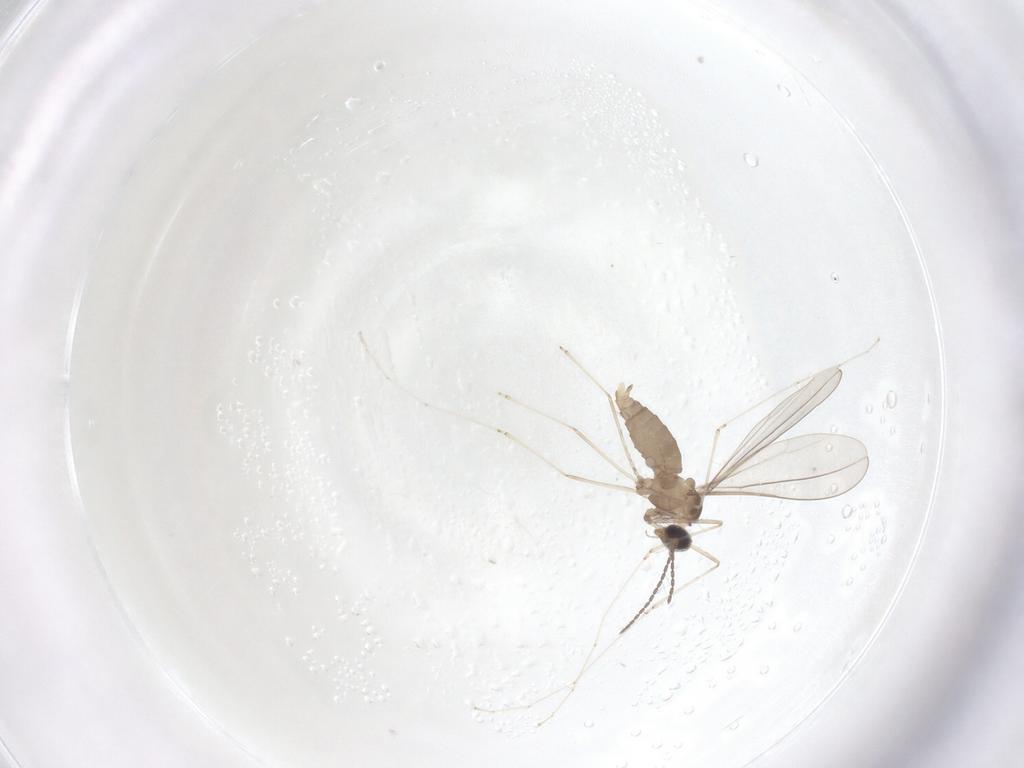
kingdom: Animalia
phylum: Arthropoda
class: Insecta
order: Diptera
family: Cecidomyiidae
